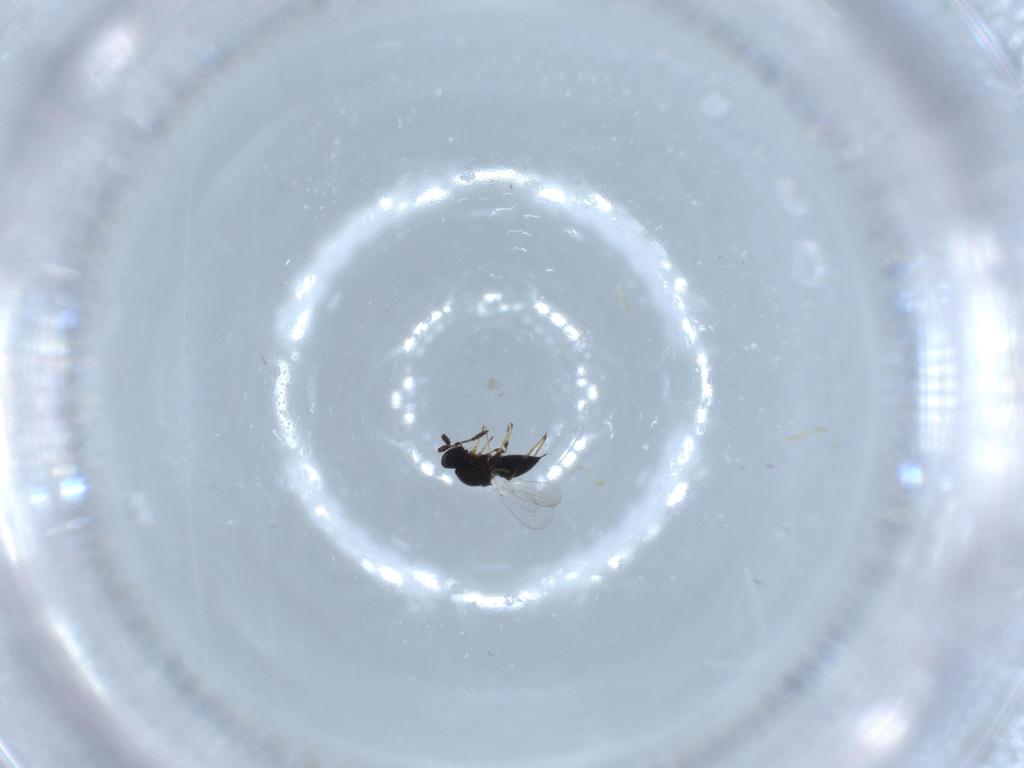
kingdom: Animalia
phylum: Arthropoda
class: Insecta
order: Hymenoptera
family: Platygastridae
